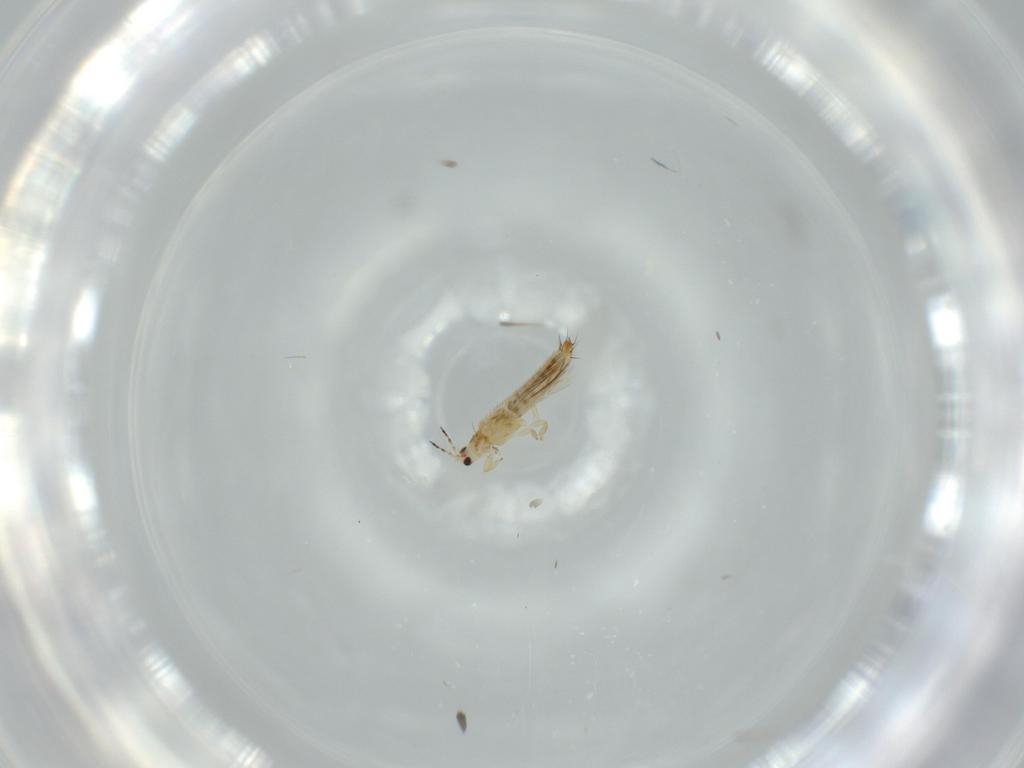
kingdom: Animalia
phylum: Arthropoda
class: Insecta
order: Thysanoptera
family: Thripidae
